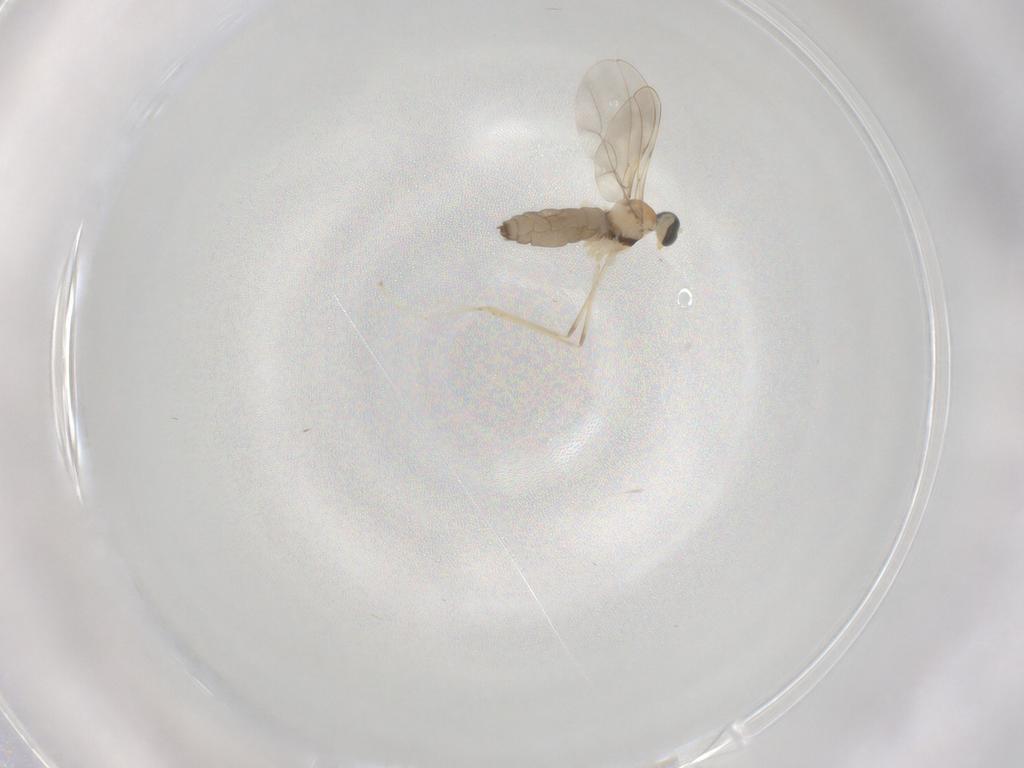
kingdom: Animalia
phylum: Arthropoda
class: Insecta
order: Diptera
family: Cecidomyiidae
